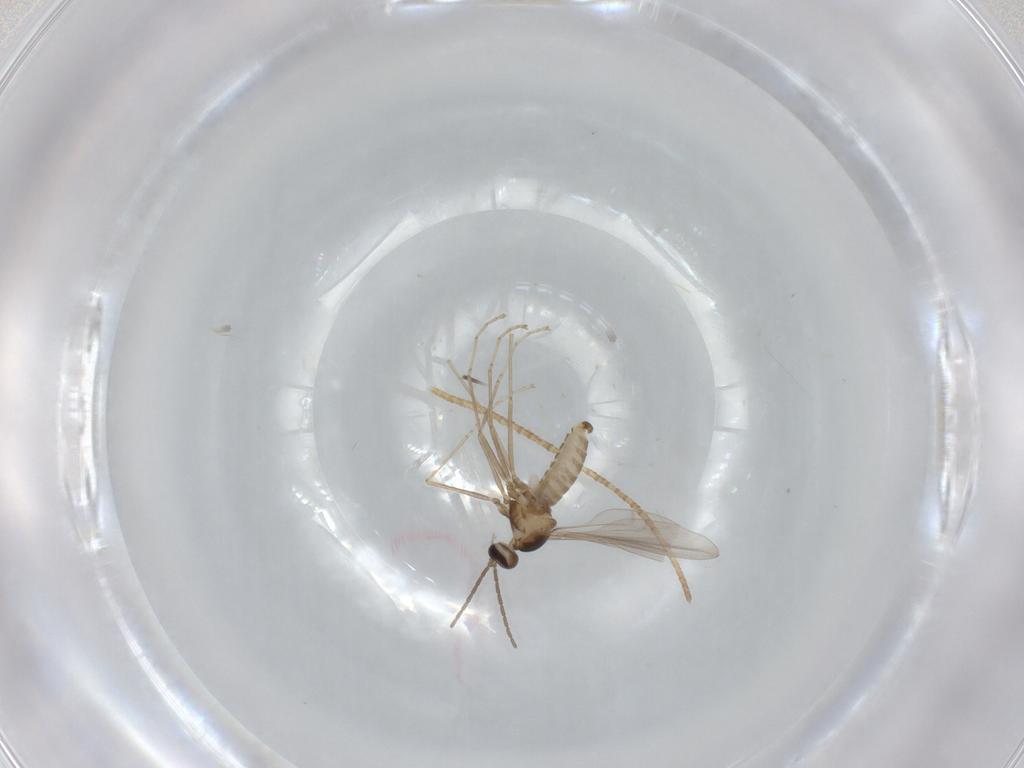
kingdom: Animalia
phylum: Arthropoda
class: Insecta
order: Diptera
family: Cecidomyiidae
